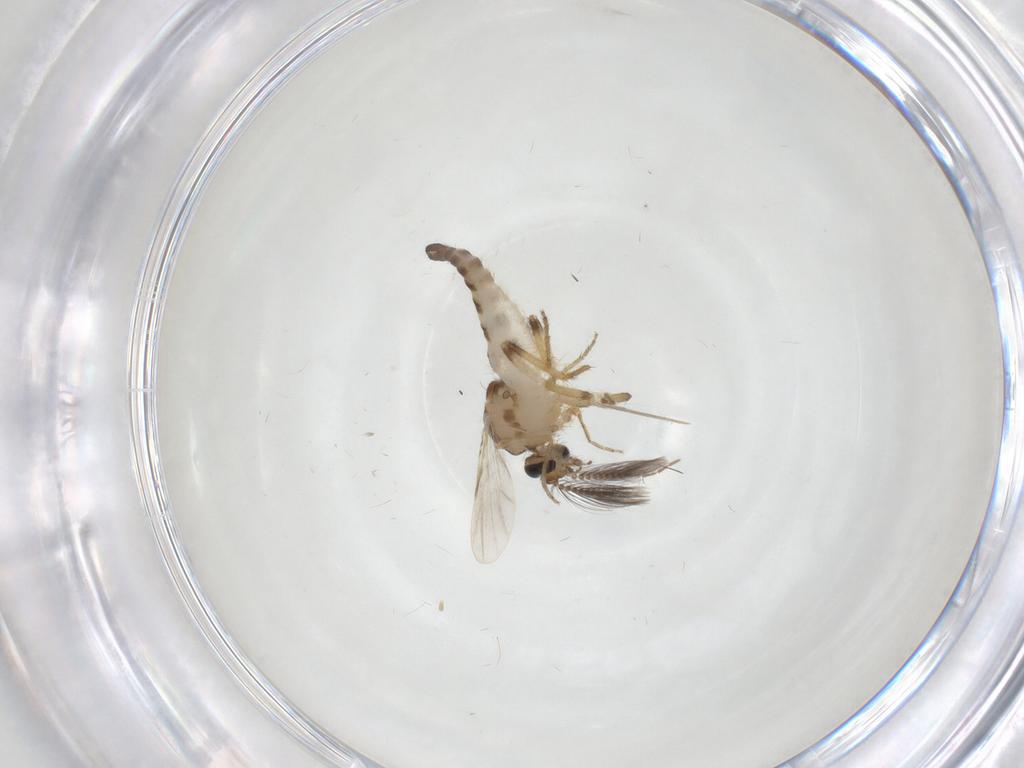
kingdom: Animalia
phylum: Arthropoda
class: Insecta
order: Diptera
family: Ceratopogonidae
